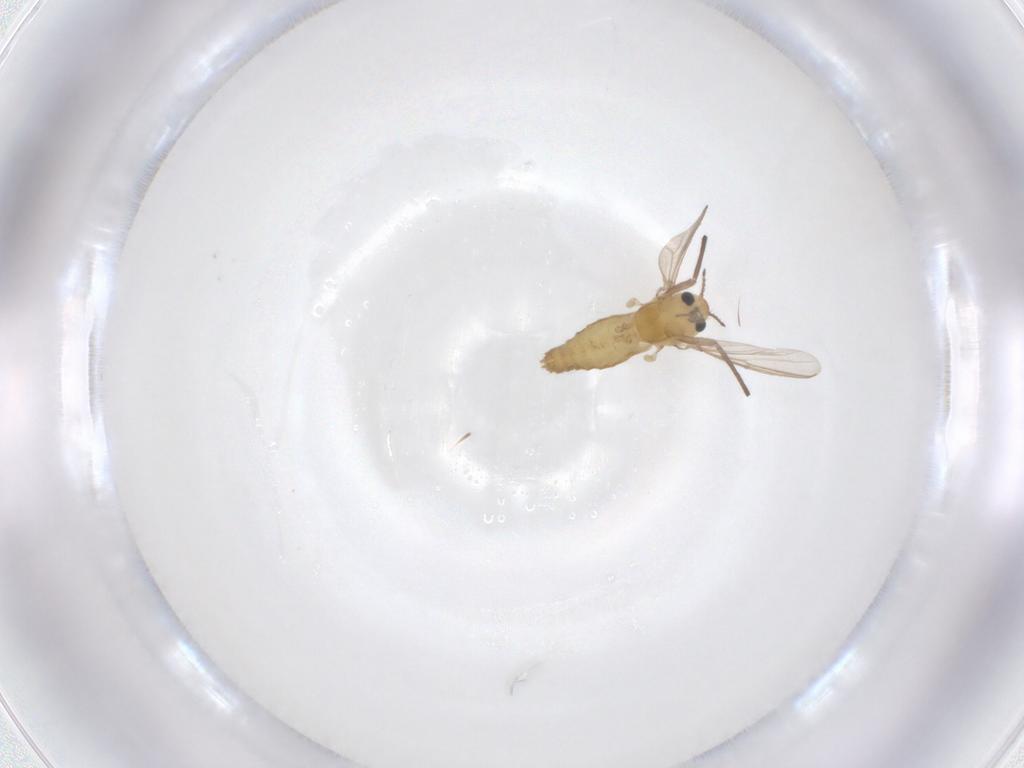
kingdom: Animalia
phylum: Arthropoda
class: Insecta
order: Diptera
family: Chironomidae
